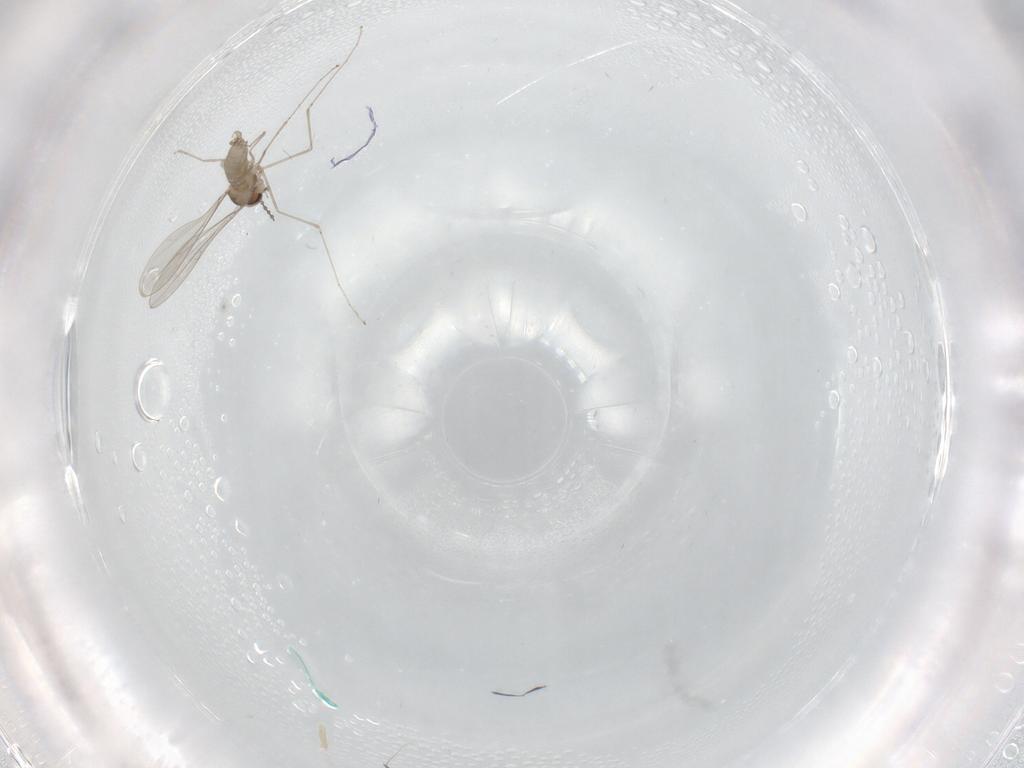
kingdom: Animalia
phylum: Arthropoda
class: Insecta
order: Diptera
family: Cecidomyiidae
